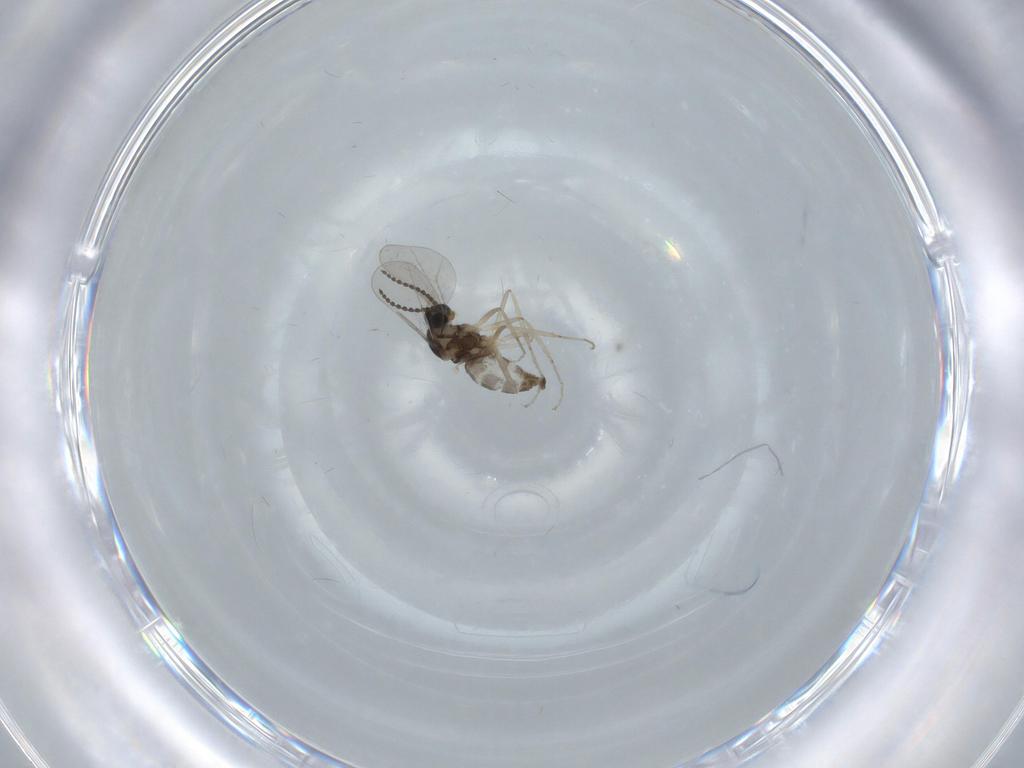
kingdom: Animalia
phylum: Arthropoda
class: Insecta
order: Diptera
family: Cecidomyiidae
